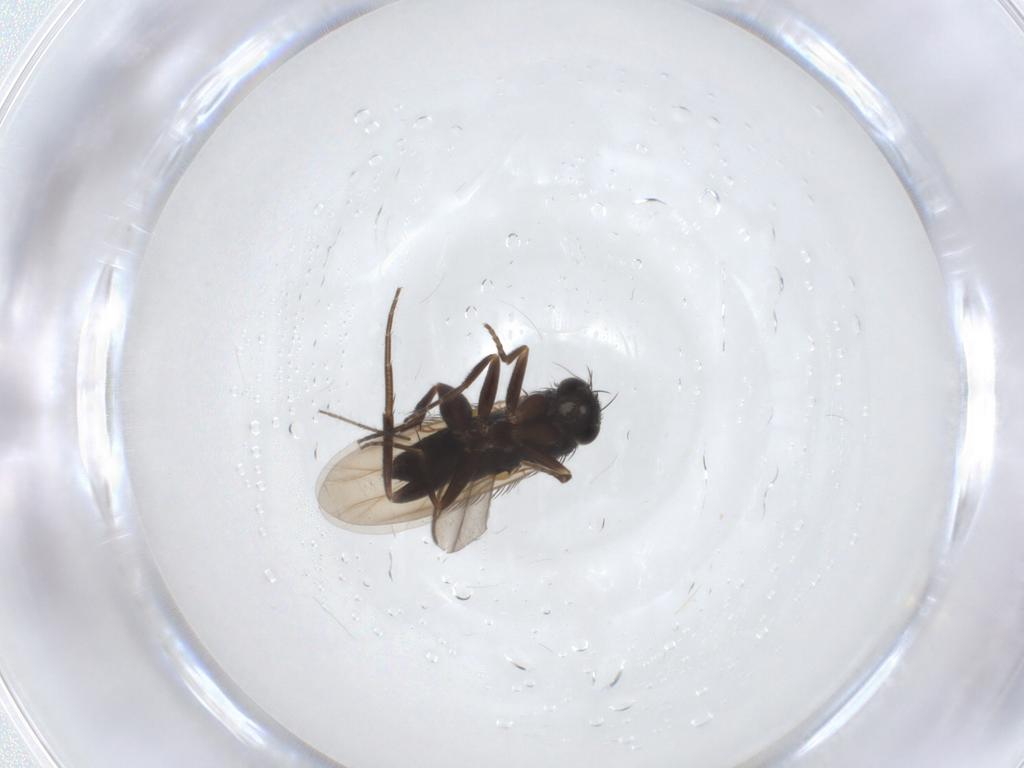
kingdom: Animalia
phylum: Arthropoda
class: Insecta
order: Diptera
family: Phoridae
